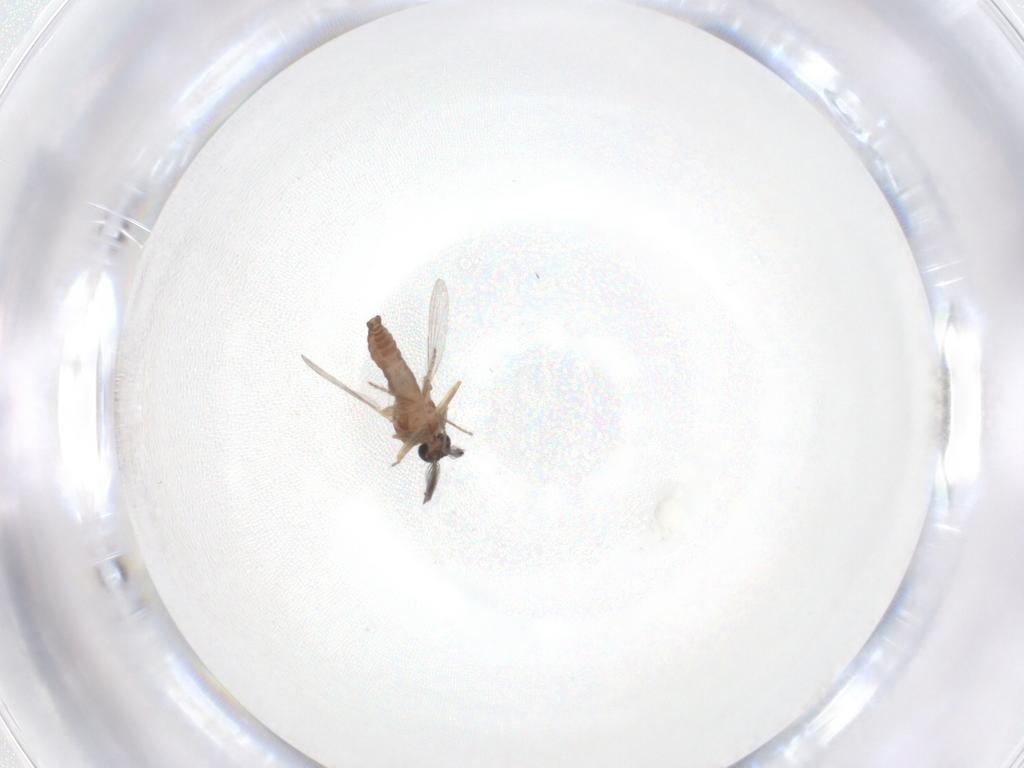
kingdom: Animalia
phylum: Arthropoda
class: Insecta
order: Diptera
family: Ceratopogonidae
